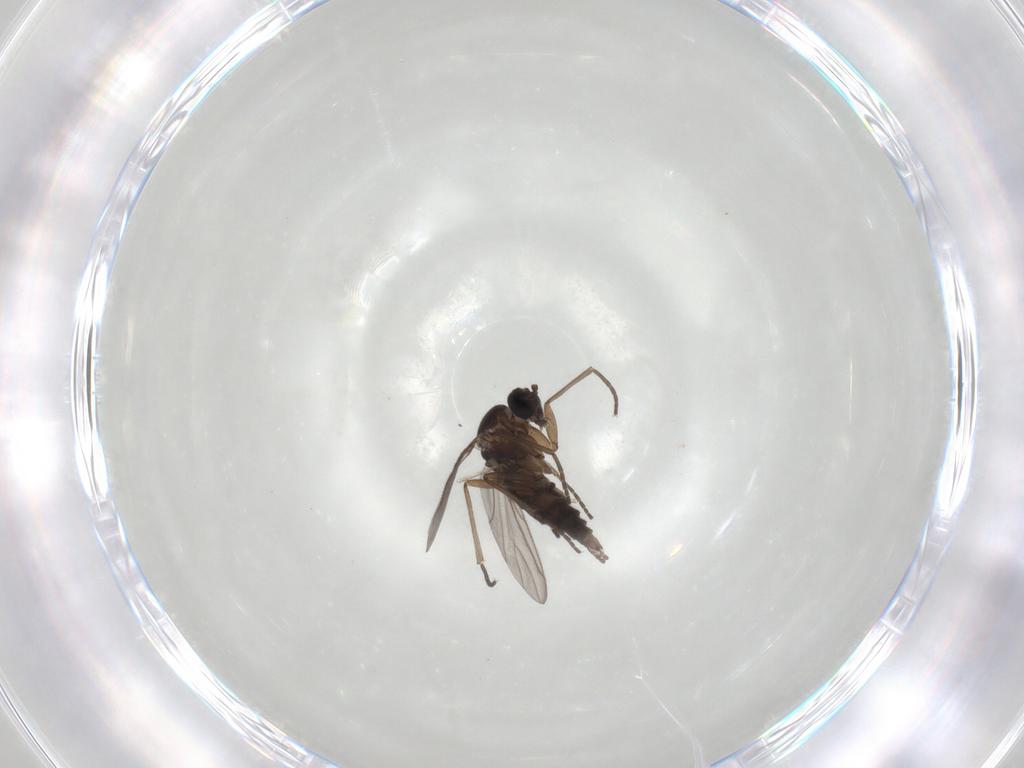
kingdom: Animalia
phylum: Arthropoda
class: Insecta
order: Diptera
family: Sciaridae
